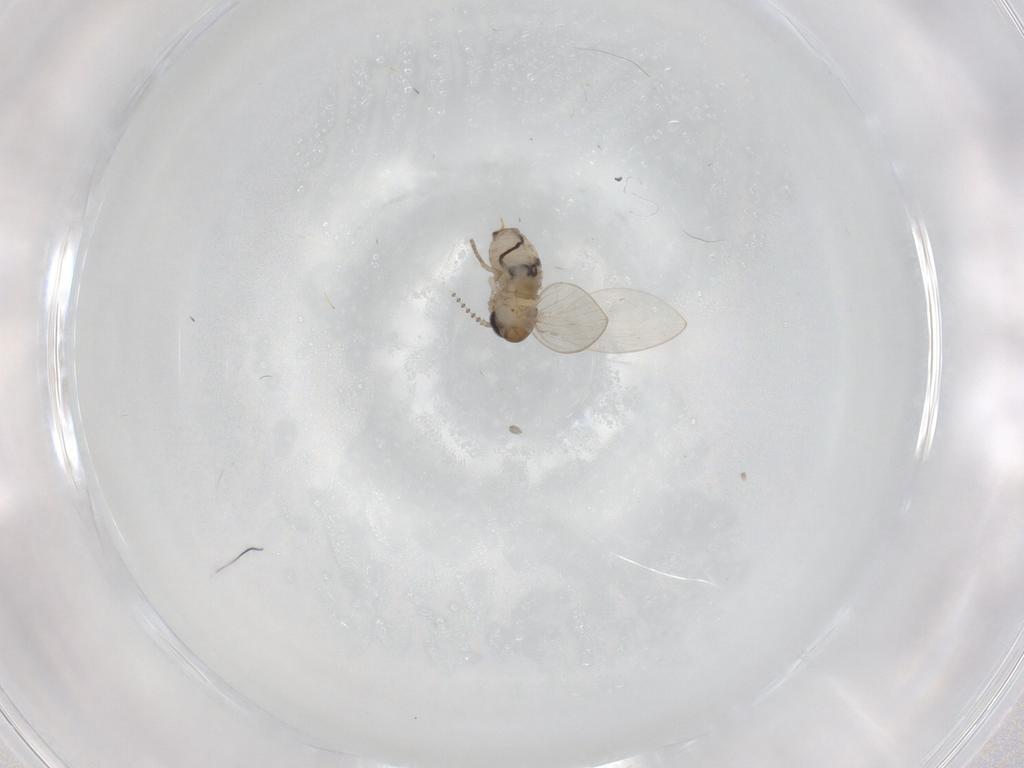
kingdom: Animalia
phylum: Arthropoda
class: Insecta
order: Diptera
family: Psychodidae
